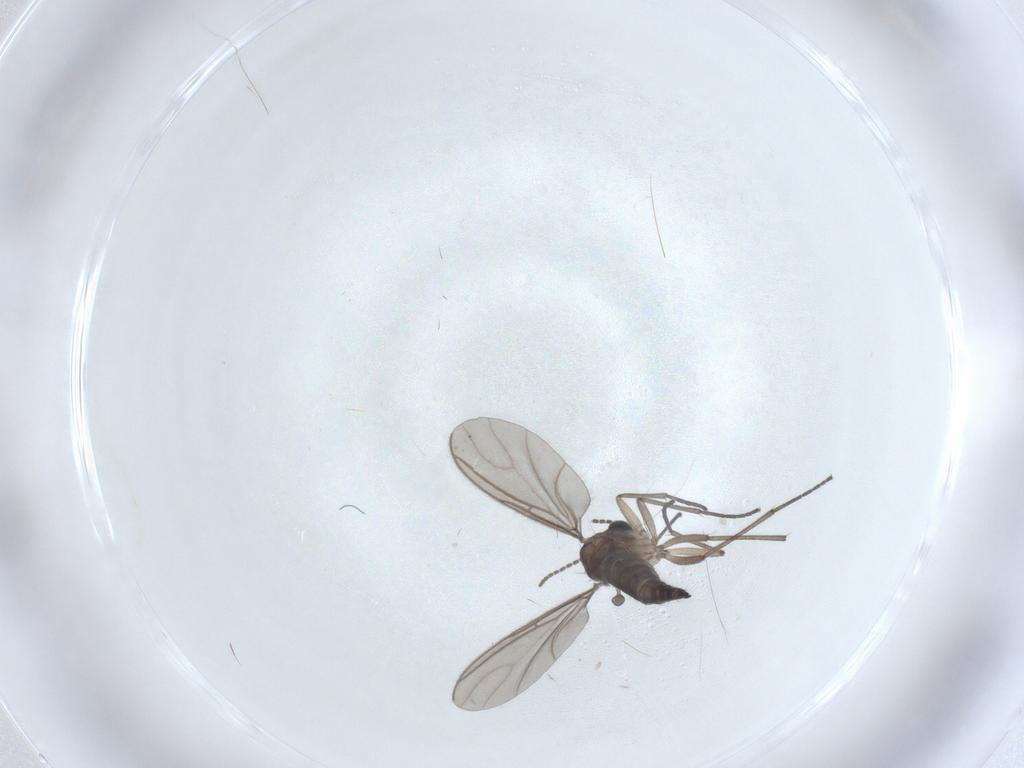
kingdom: Animalia
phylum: Arthropoda
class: Insecta
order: Diptera
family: Sciaridae
